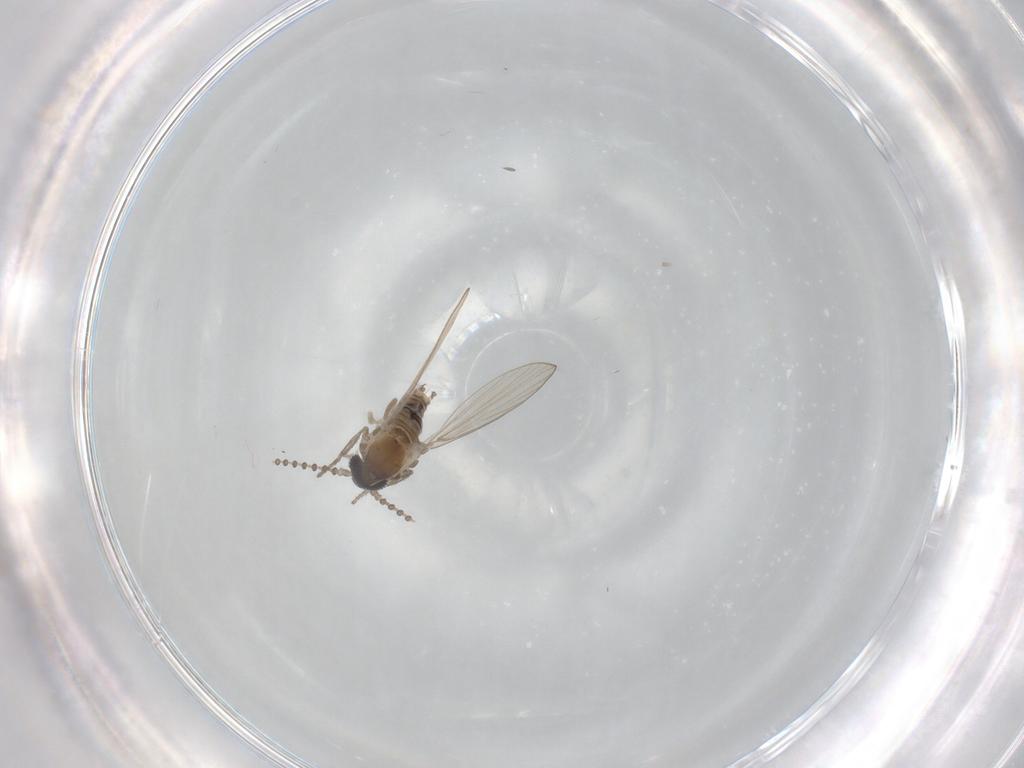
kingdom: Animalia
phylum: Arthropoda
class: Insecta
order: Diptera
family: Psychodidae
